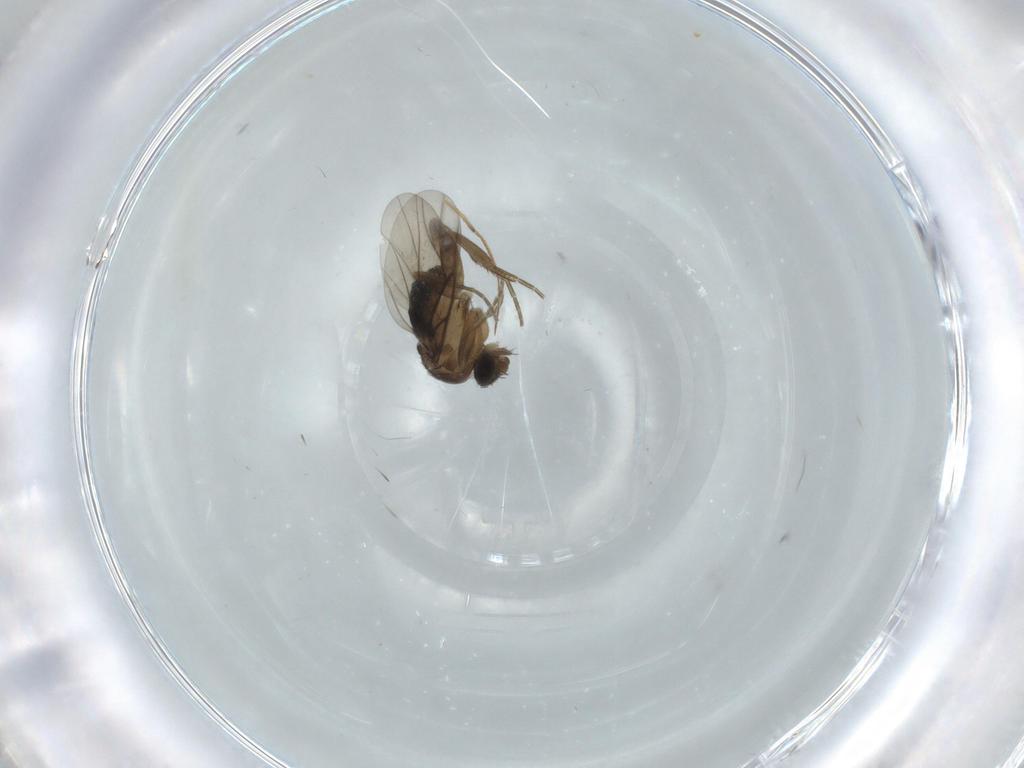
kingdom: Animalia
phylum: Arthropoda
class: Insecta
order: Diptera
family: Phoridae
